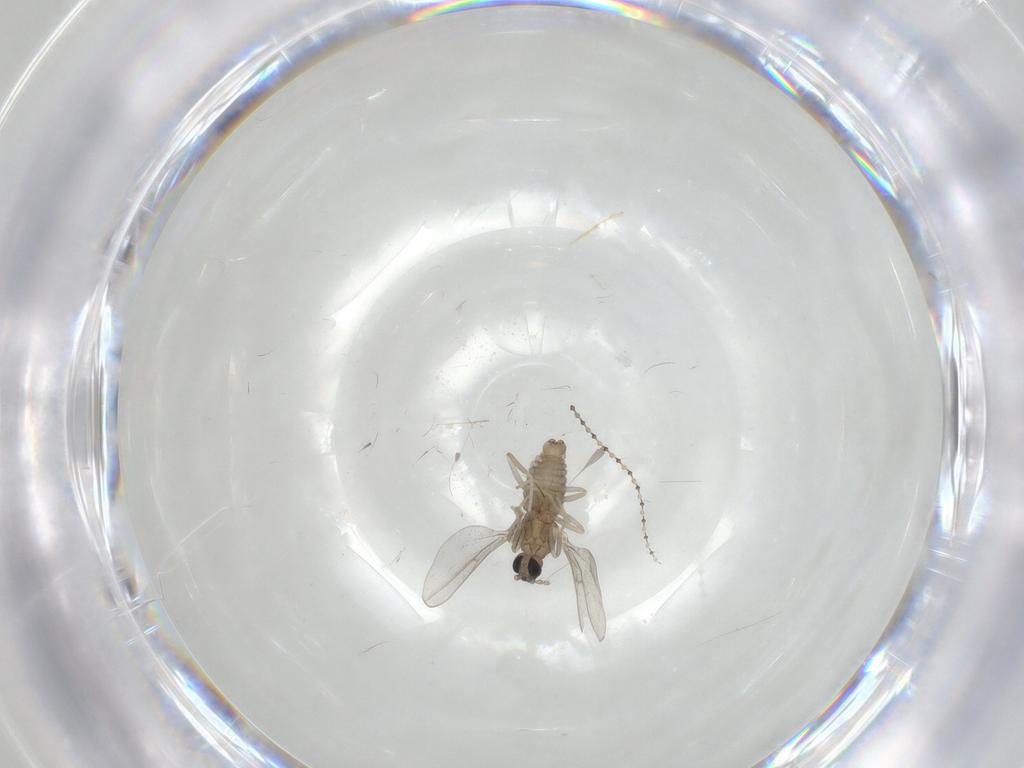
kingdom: Animalia
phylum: Arthropoda
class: Insecta
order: Diptera
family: Cecidomyiidae
